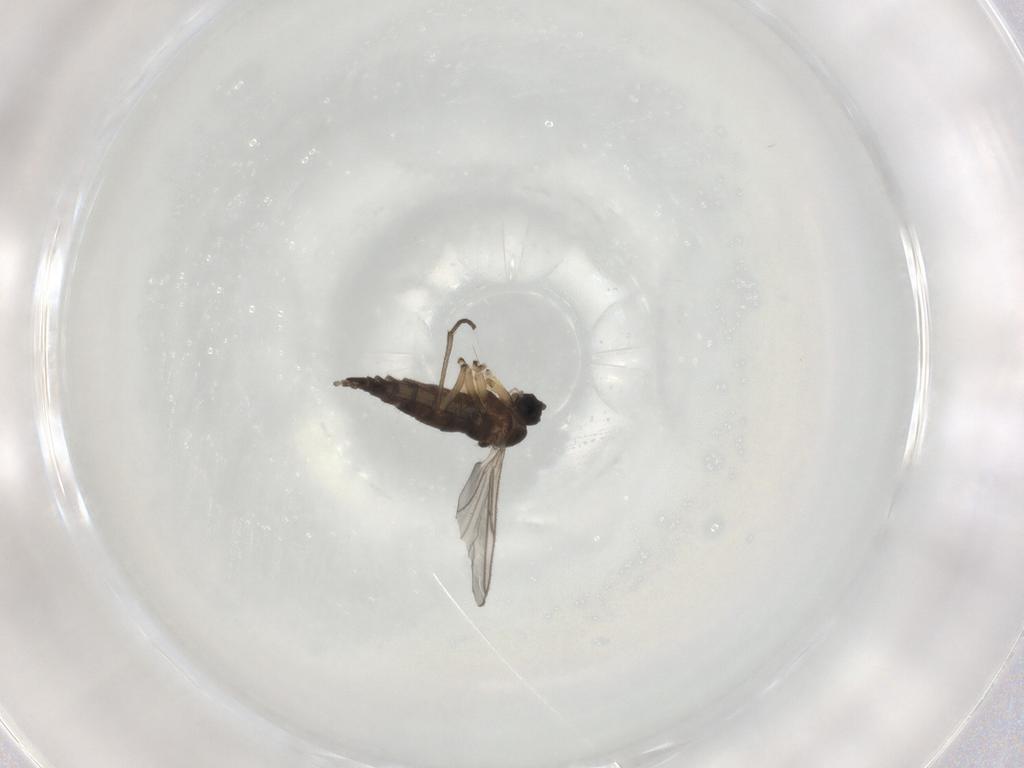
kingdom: Animalia
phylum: Arthropoda
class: Insecta
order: Diptera
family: Sciaridae
